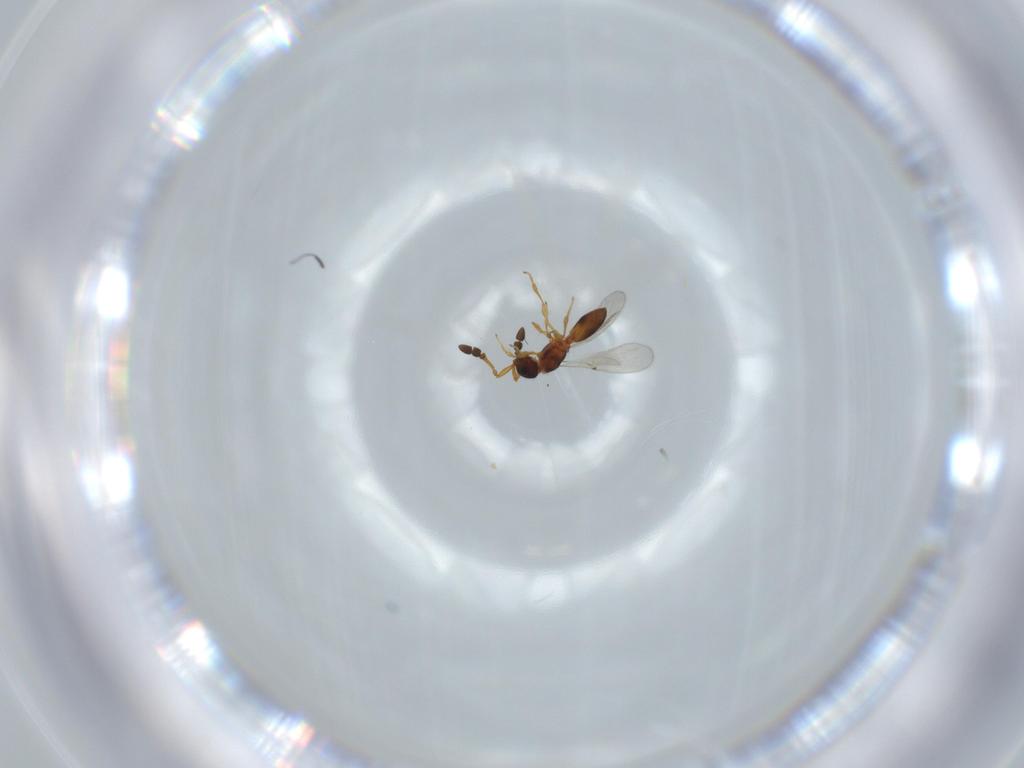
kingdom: Animalia
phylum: Arthropoda
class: Insecta
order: Hymenoptera
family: Diapriidae
